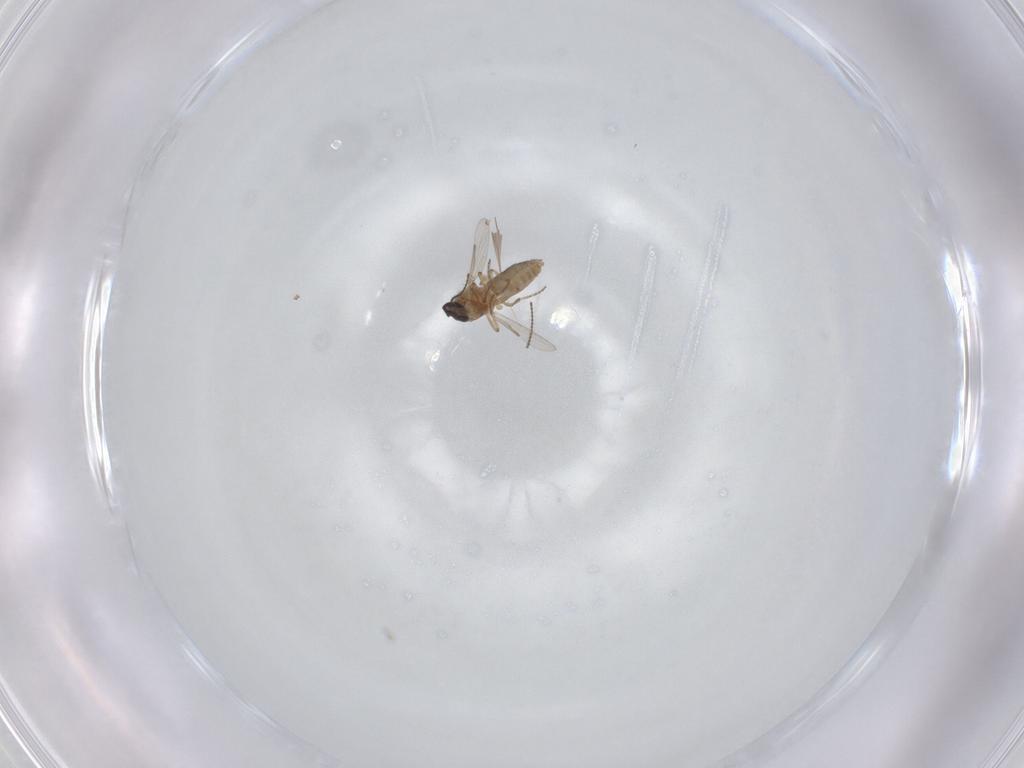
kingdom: Animalia
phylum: Arthropoda
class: Insecta
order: Diptera
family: Ceratopogonidae
